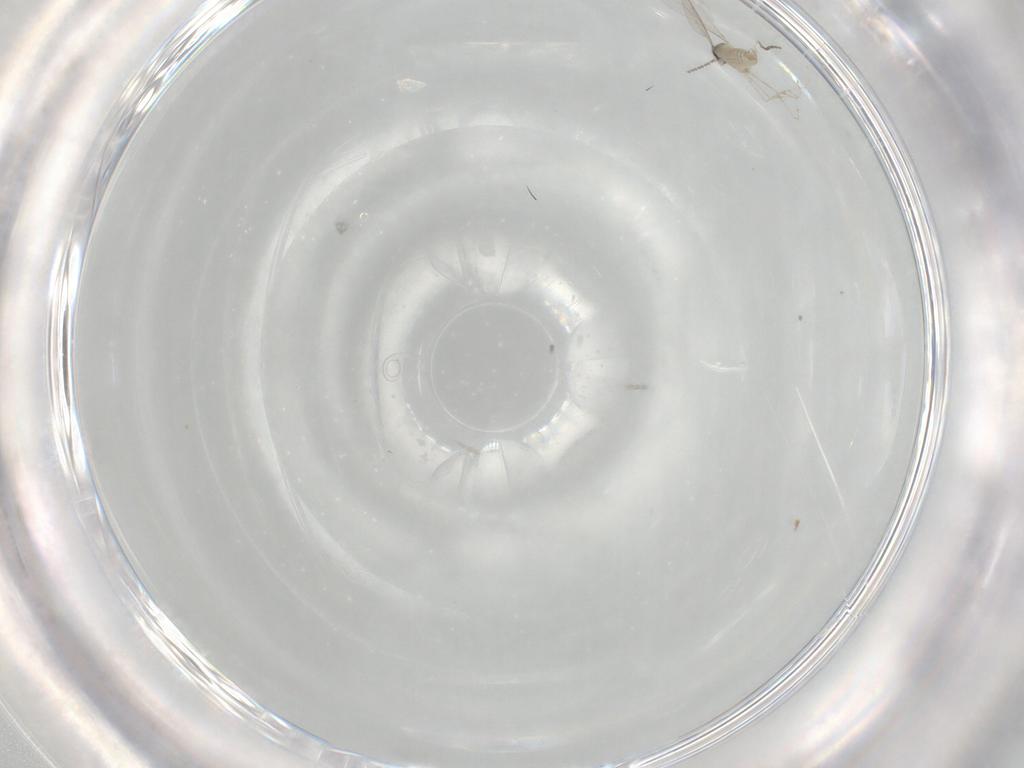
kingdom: Animalia
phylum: Arthropoda
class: Insecta
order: Diptera
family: Cecidomyiidae
